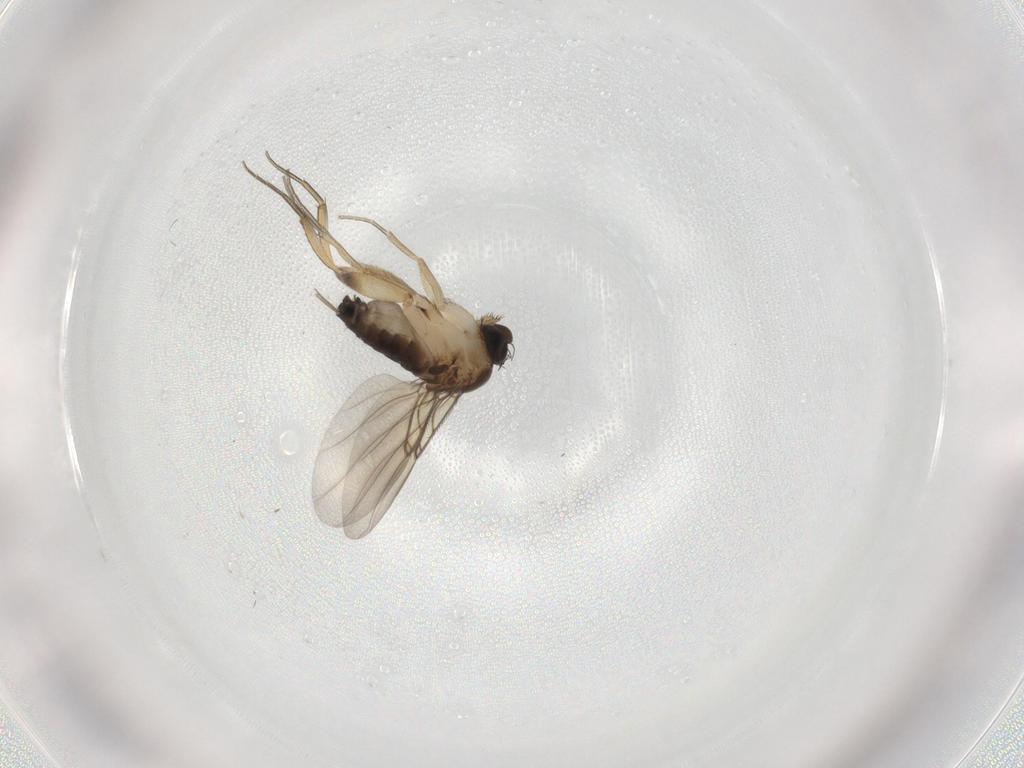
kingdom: Animalia
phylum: Arthropoda
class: Insecta
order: Diptera
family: Phoridae
